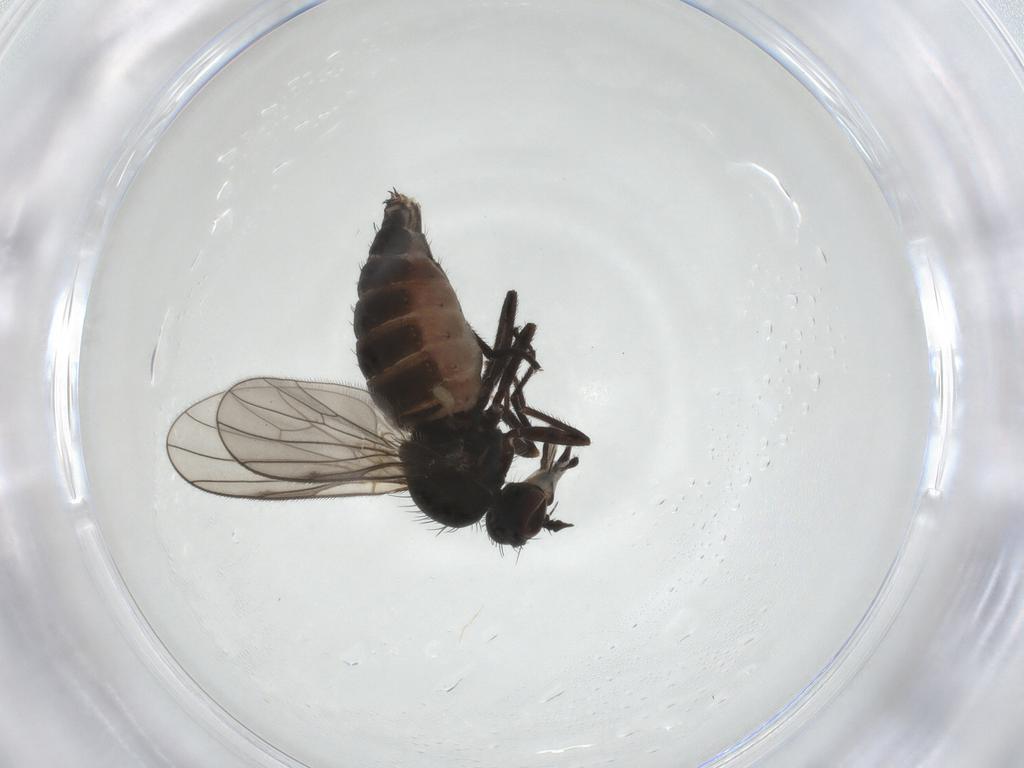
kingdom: Animalia
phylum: Arthropoda
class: Insecta
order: Diptera
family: Dolichopodidae
